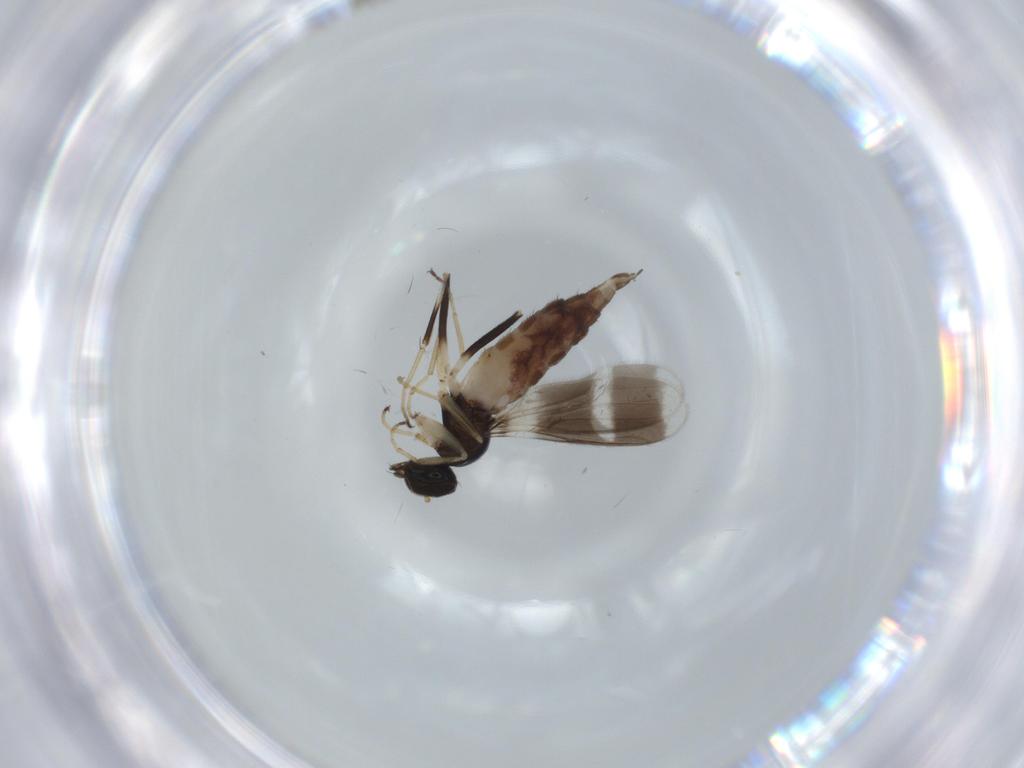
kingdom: Animalia
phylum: Arthropoda
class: Insecta
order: Diptera
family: Hybotidae
